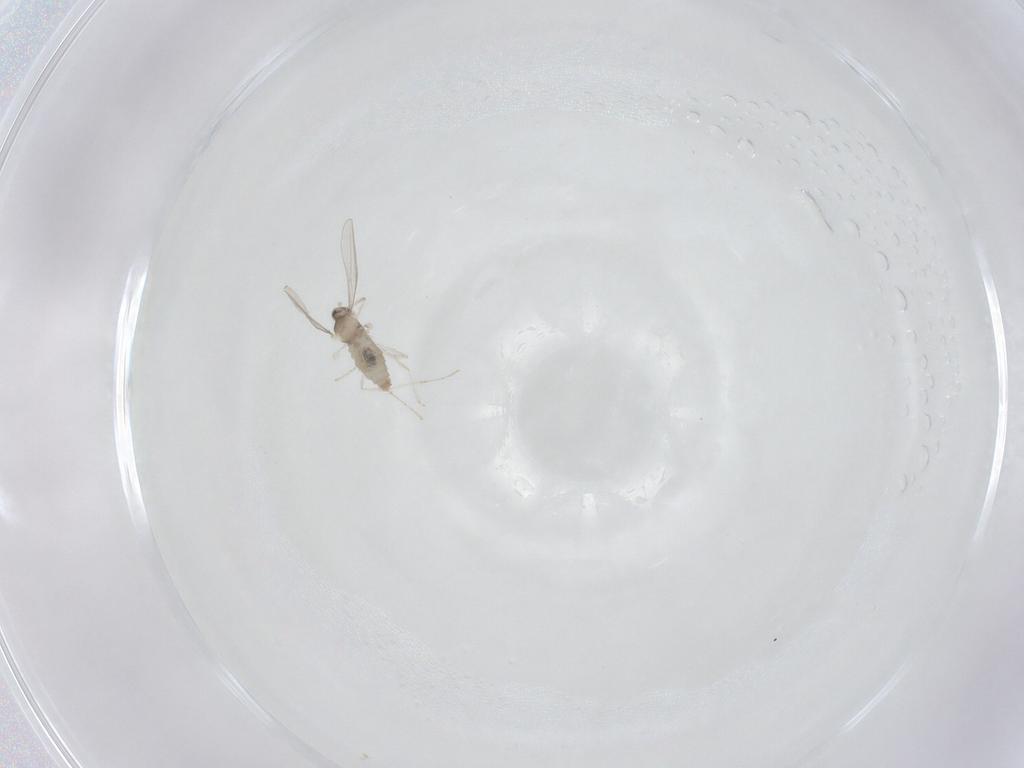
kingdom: Animalia
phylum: Arthropoda
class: Insecta
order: Diptera
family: Cecidomyiidae
